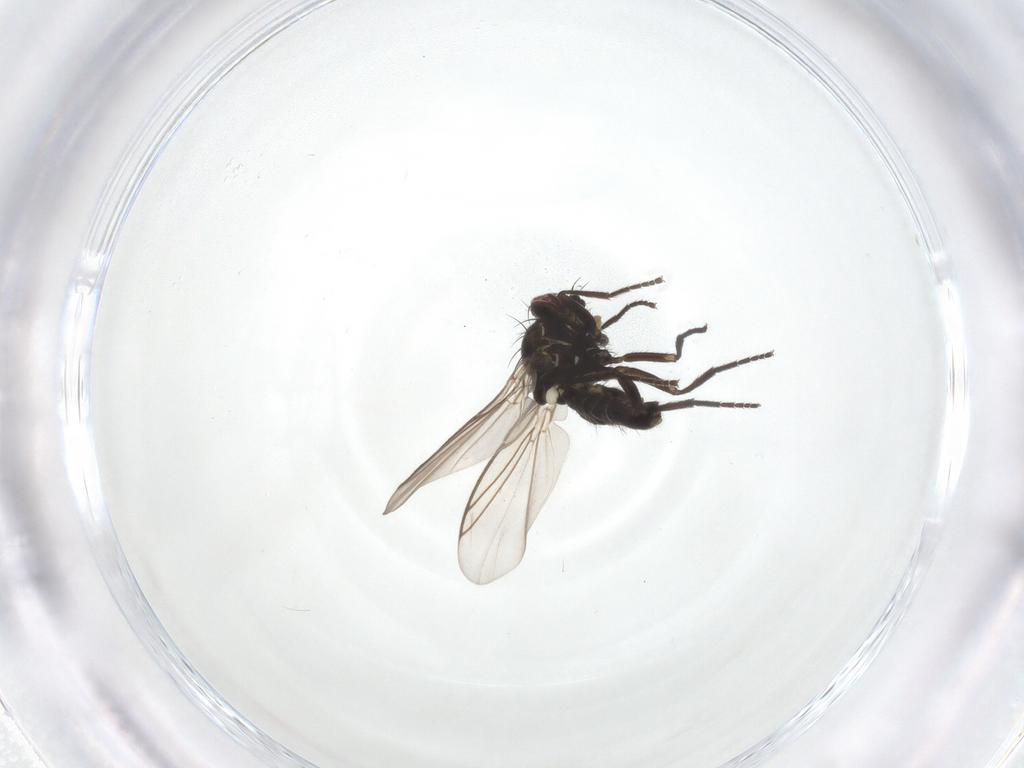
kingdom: Animalia
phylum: Arthropoda
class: Insecta
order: Diptera
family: Agromyzidae
